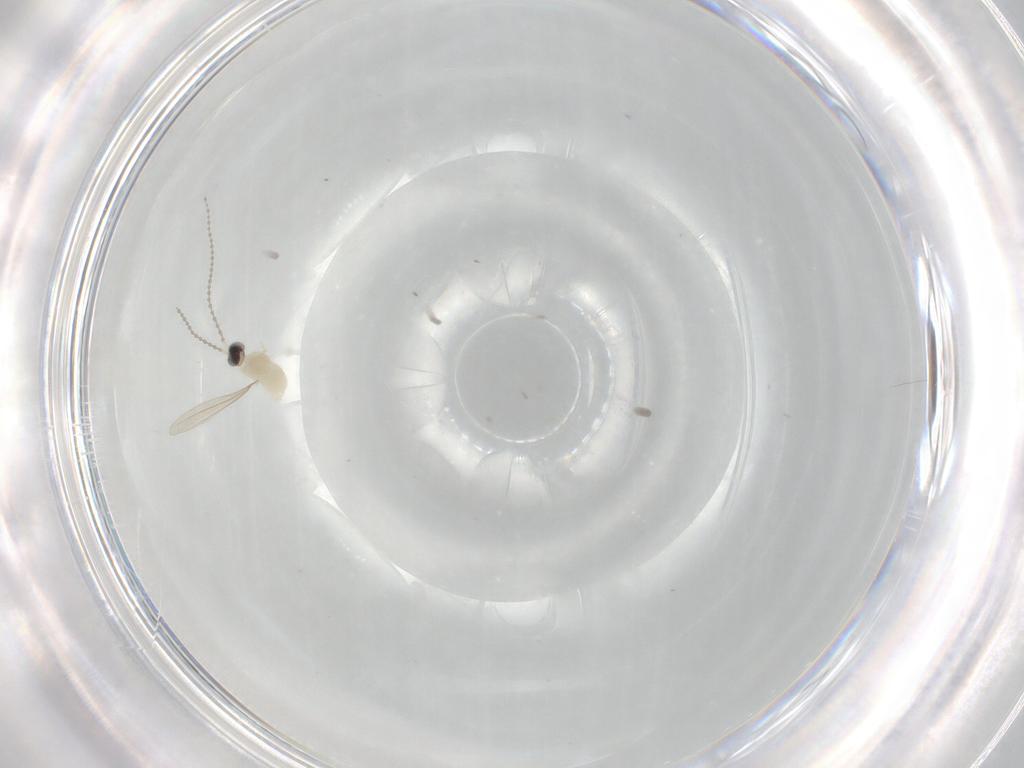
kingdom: Animalia
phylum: Arthropoda
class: Insecta
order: Diptera
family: Cecidomyiidae
